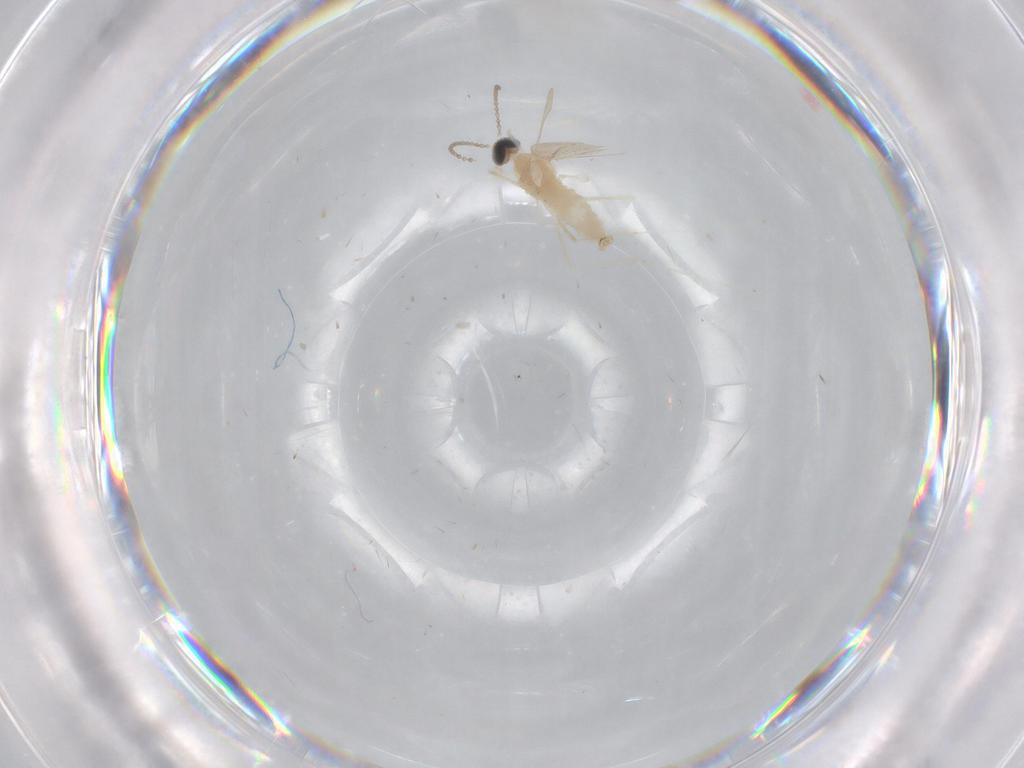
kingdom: Animalia
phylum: Arthropoda
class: Insecta
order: Diptera
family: Cecidomyiidae
